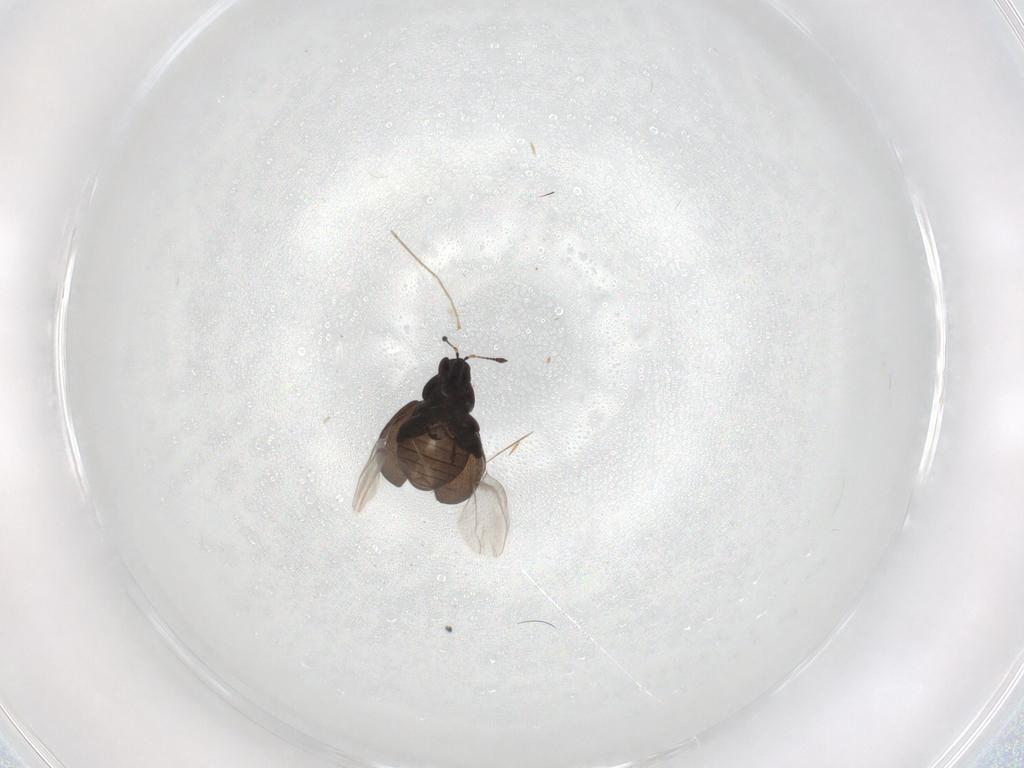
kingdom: Animalia
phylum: Arthropoda
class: Insecta
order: Coleoptera
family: Curculionidae
